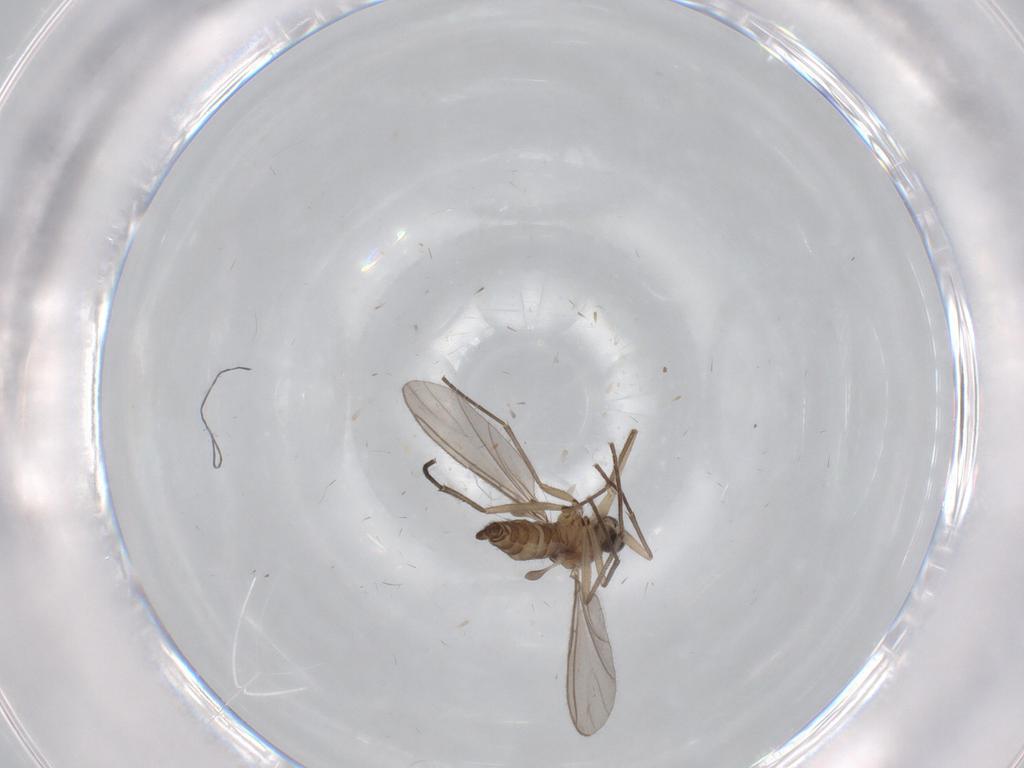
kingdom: Animalia
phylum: Arthropoda
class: Insecta
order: Diptera
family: Sciaridae
